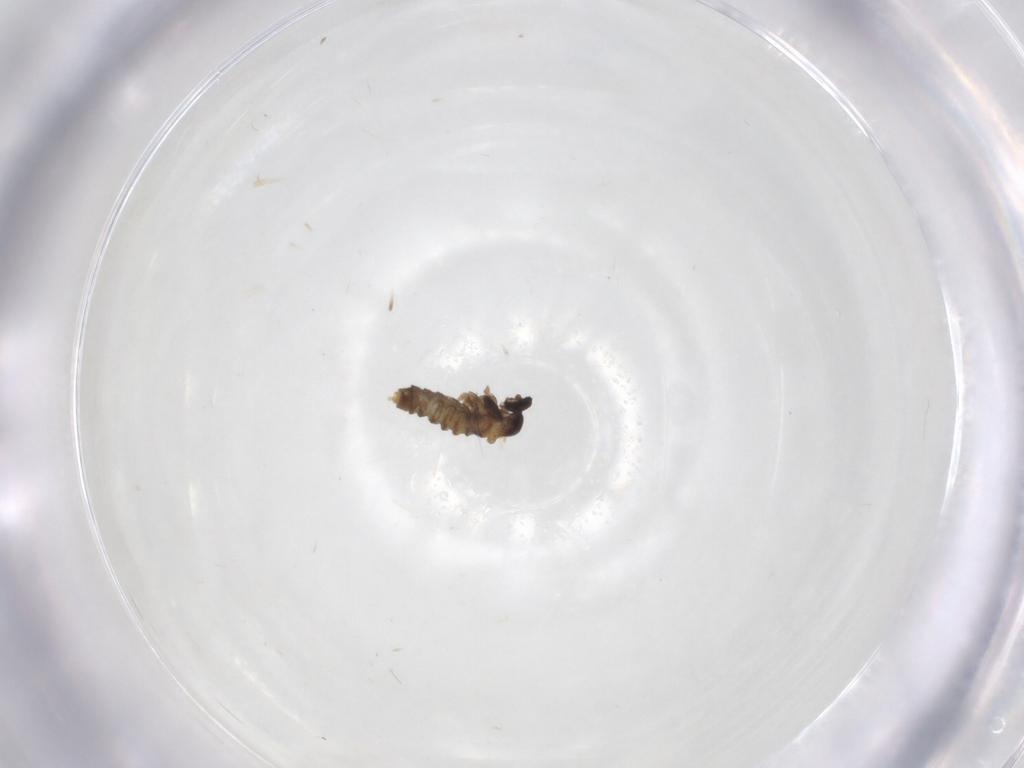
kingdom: Animalia
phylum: Arthropoda
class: Insecta
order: Diptera
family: Cecidomyiidae
